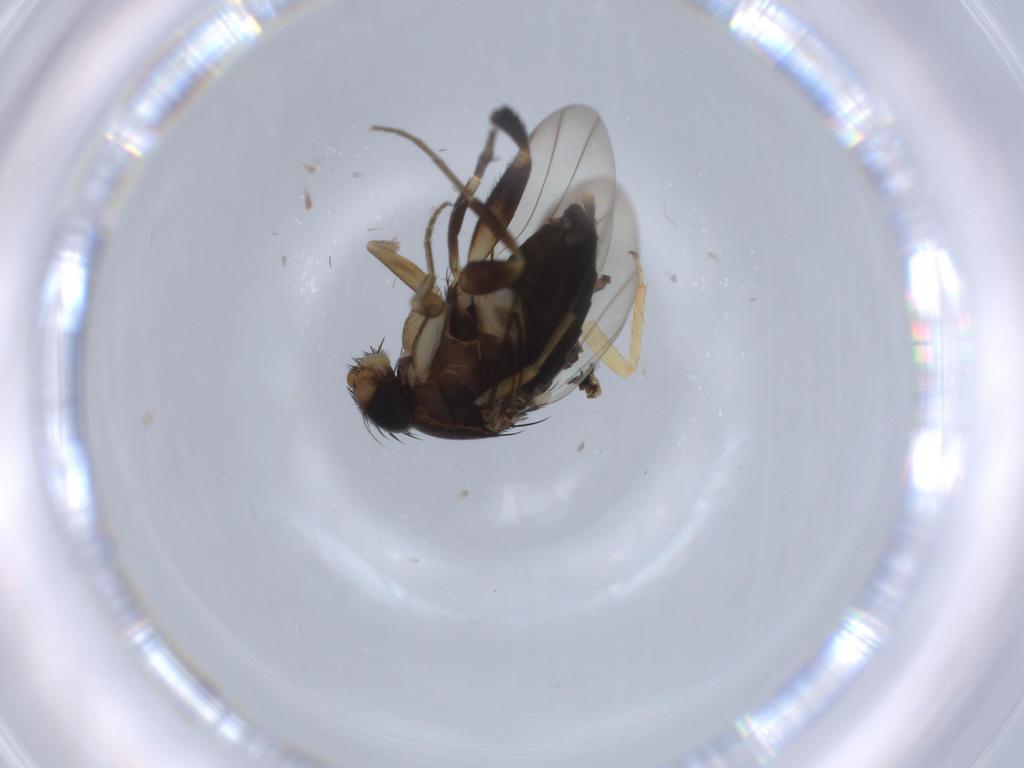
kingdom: Animalia
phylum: Arthropoda
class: Insecta
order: Diptera
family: Phoridae
